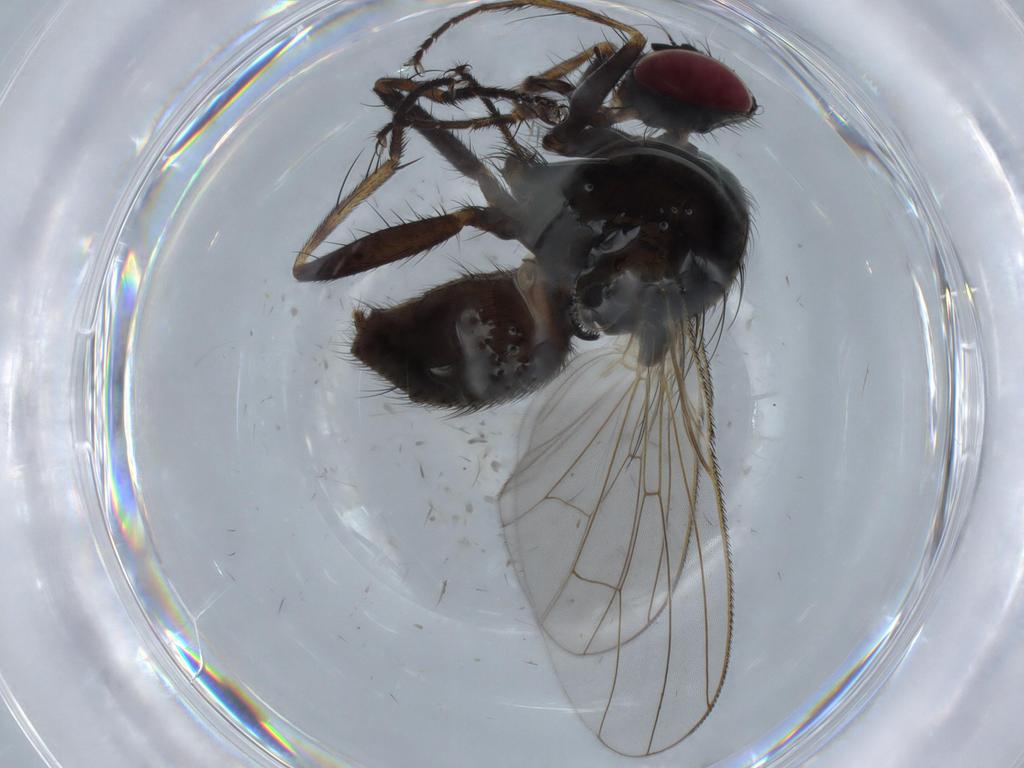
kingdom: Animalia
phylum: Arthropoda
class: Insecta
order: Diptera
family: Muscidae
